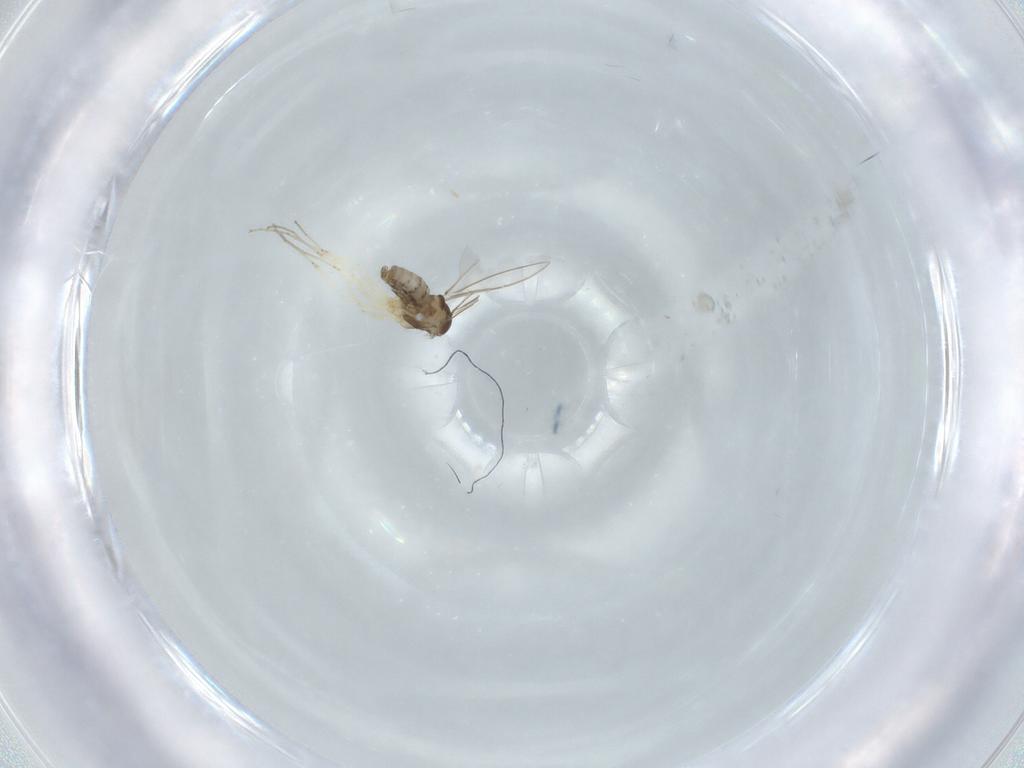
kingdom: Animalia
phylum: Arthropoda
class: Insecta
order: Diptera
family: Cecidomyiidae
